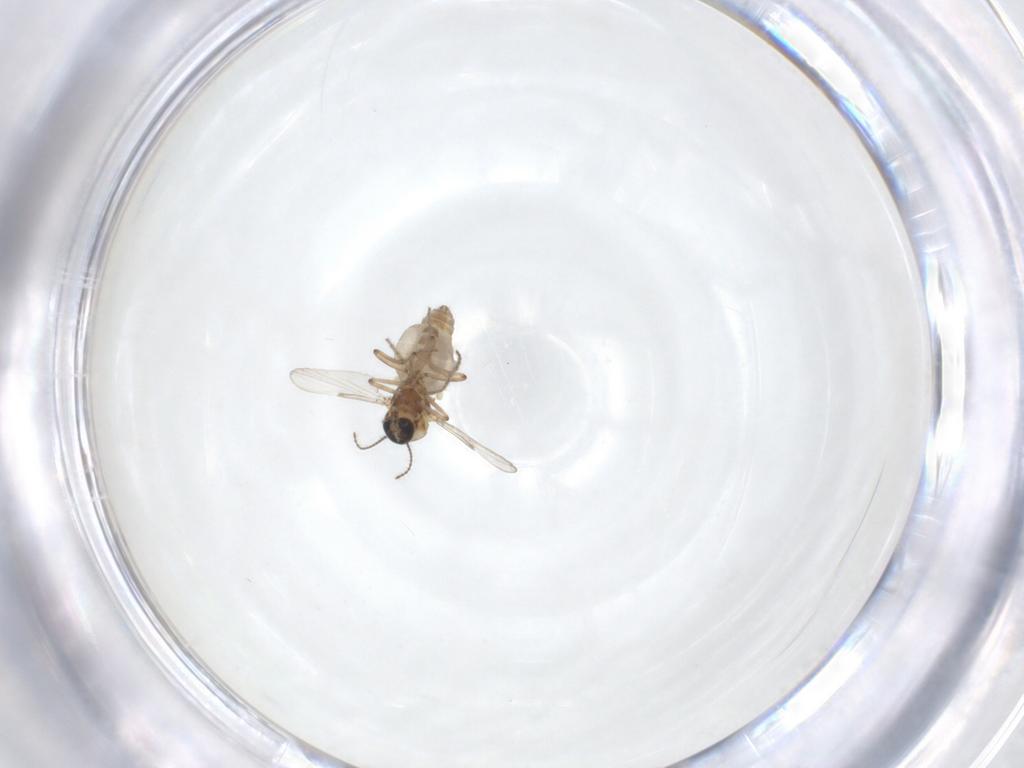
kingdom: Animalia
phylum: Arthropoda
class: Insecta
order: Diptera
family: Ceratopogonidae
